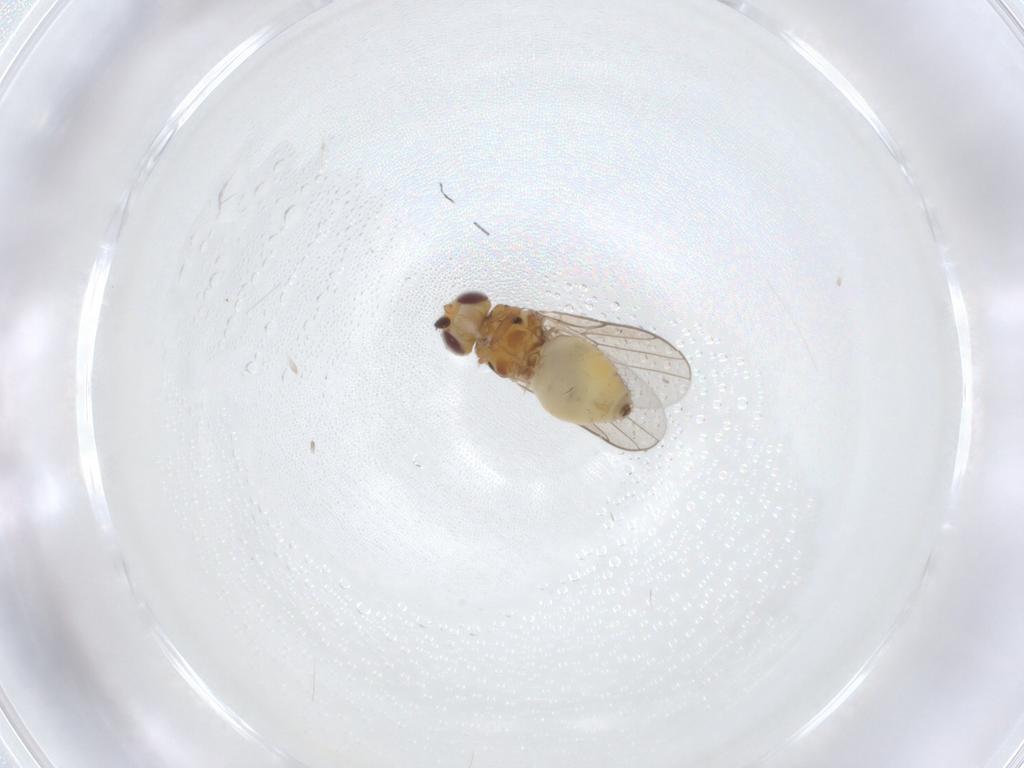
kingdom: Animalia
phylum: Arthropoda
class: Insecta
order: Diptera
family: Chloropidae
